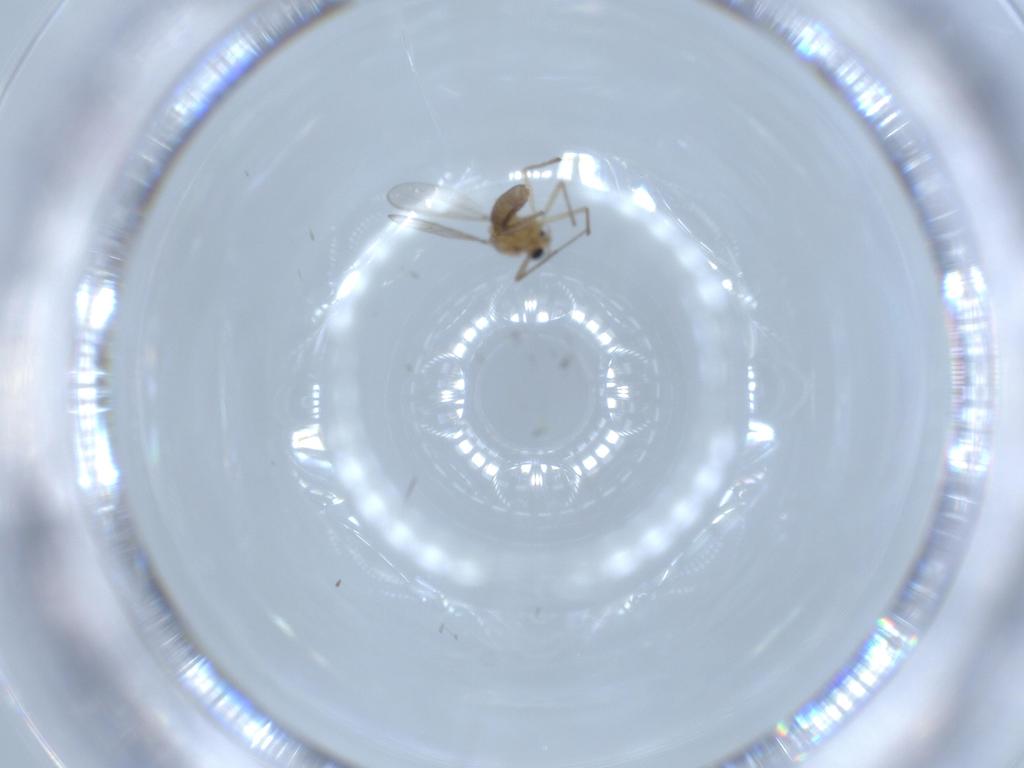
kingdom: Animalia
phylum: Arthropoda
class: Insecta
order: Diptera
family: Chironomidae
